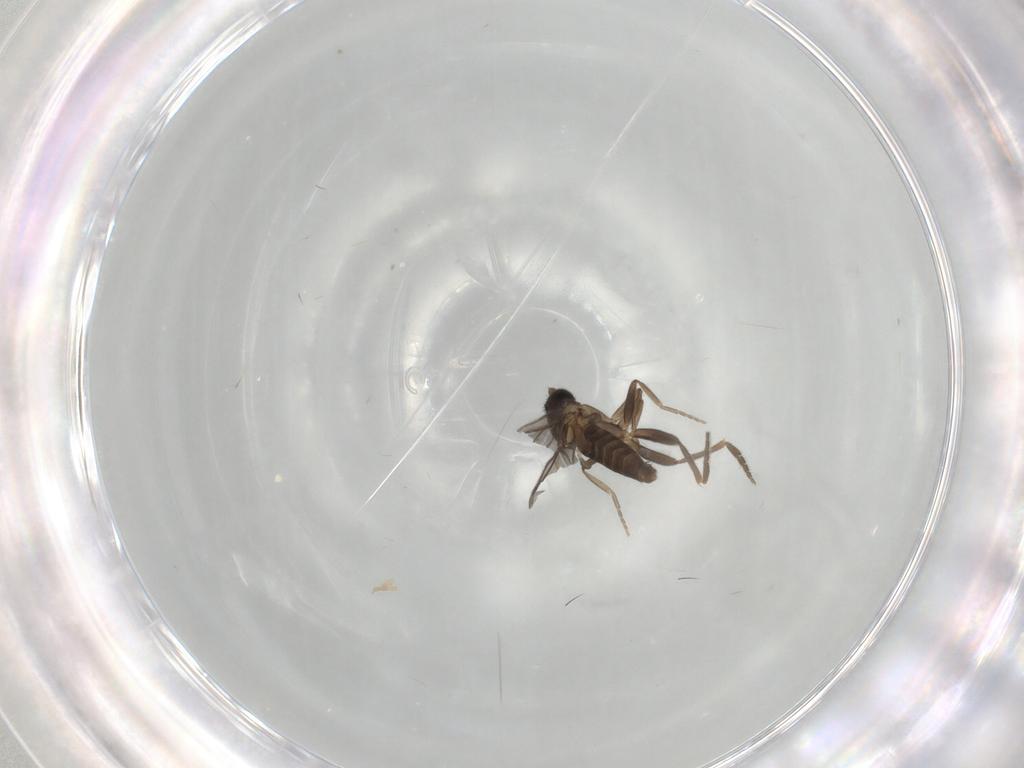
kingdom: Animalia
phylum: Arthropoda
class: Insecta
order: Diptera
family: Phoridae
